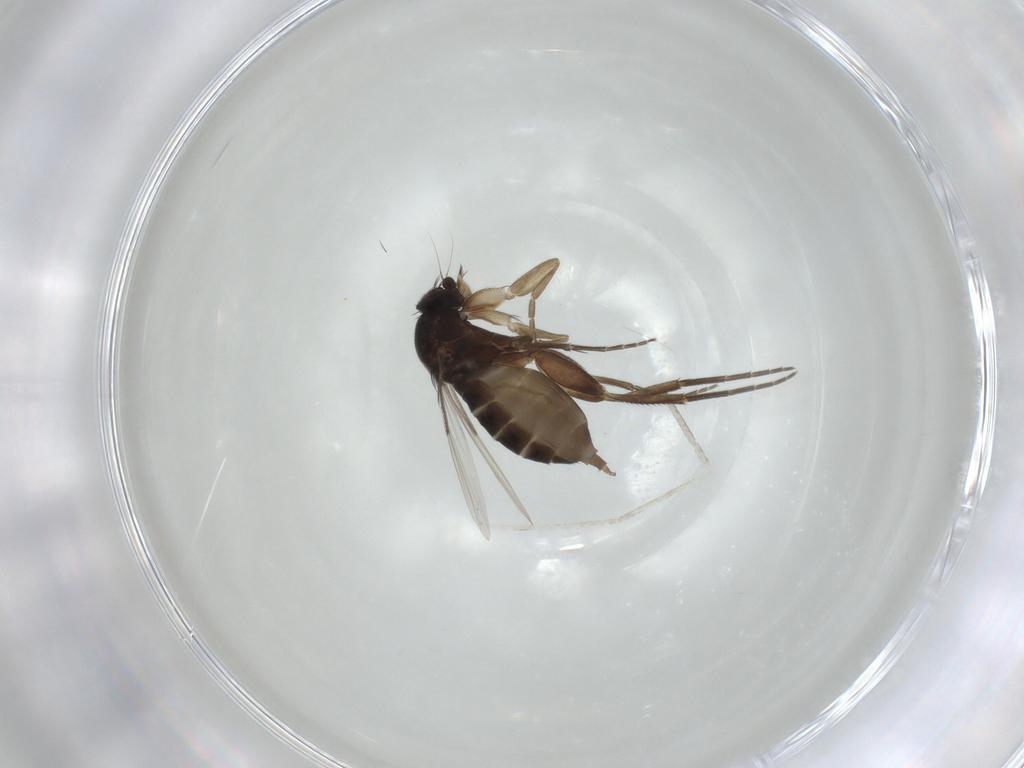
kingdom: Animalia
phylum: Arthropoda
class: Insecta
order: Diptera
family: Phoridae
